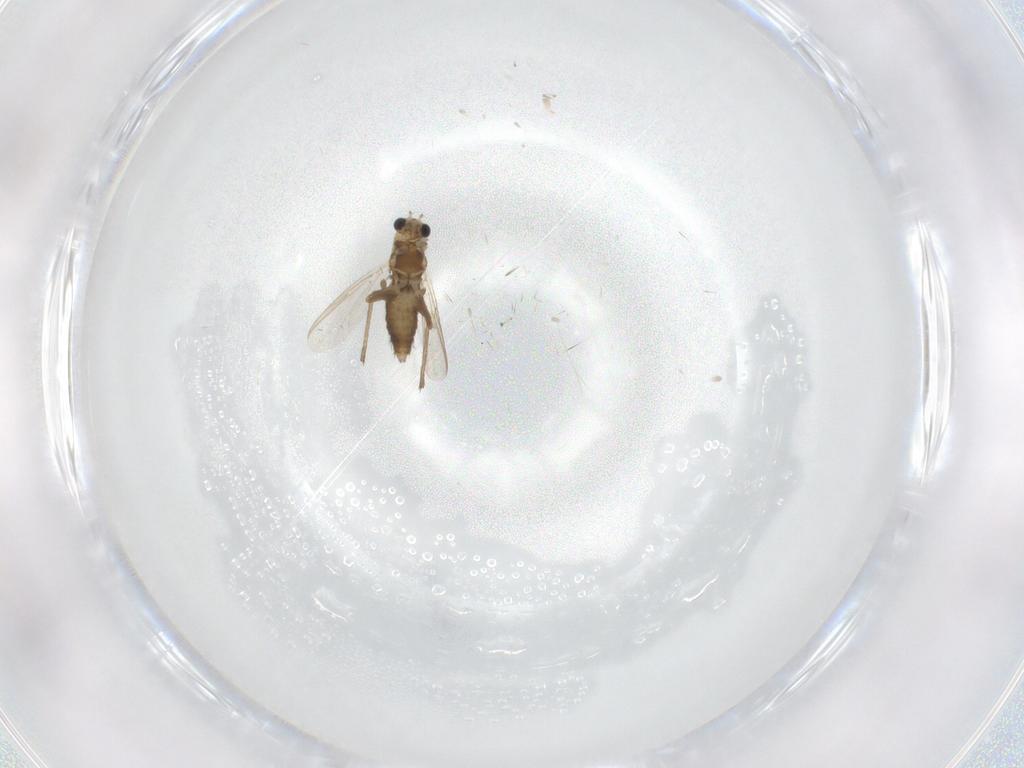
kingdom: Animalia
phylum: Arthropoda
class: Insecta
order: Diptera
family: Chironomidae
